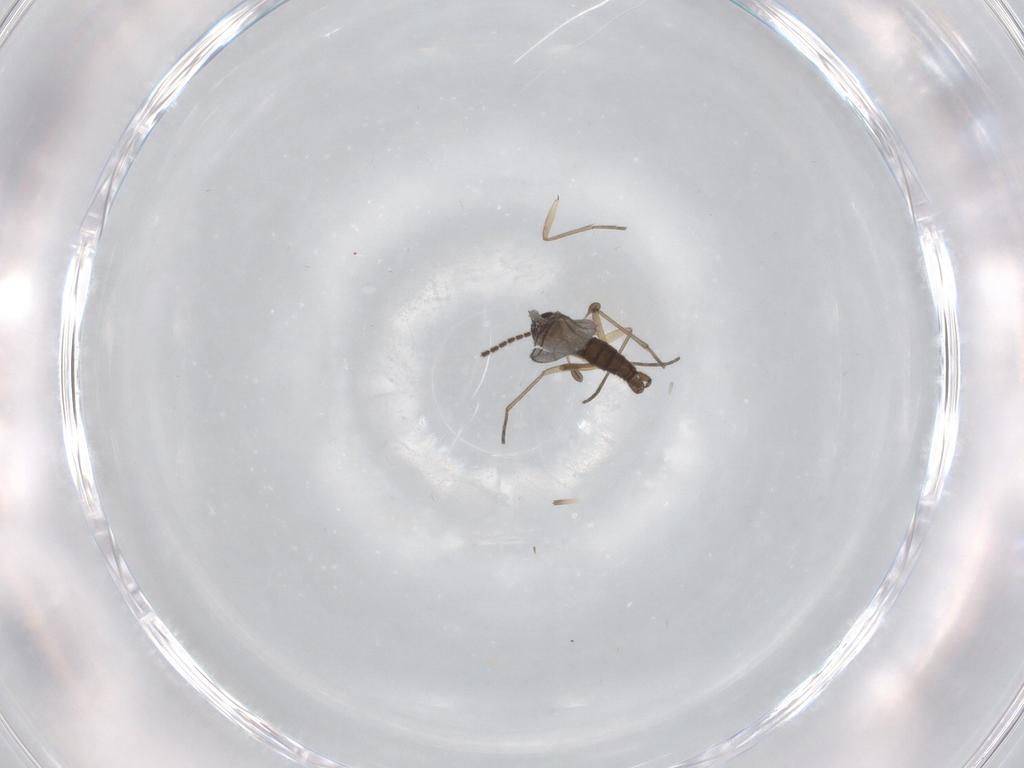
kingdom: Animalia
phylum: Arthropoda
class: Insecta
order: Diptera
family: Sciaridae
